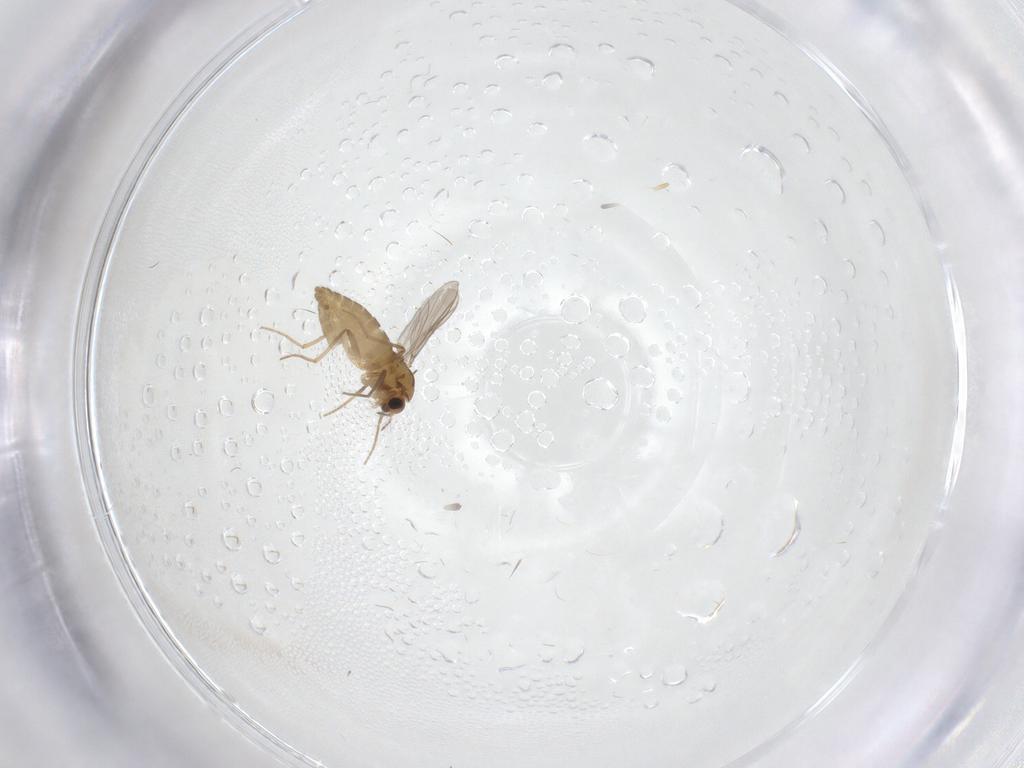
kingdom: Animalia
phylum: Arthropoda
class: Insecta
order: Diptera
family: Chironomidae
